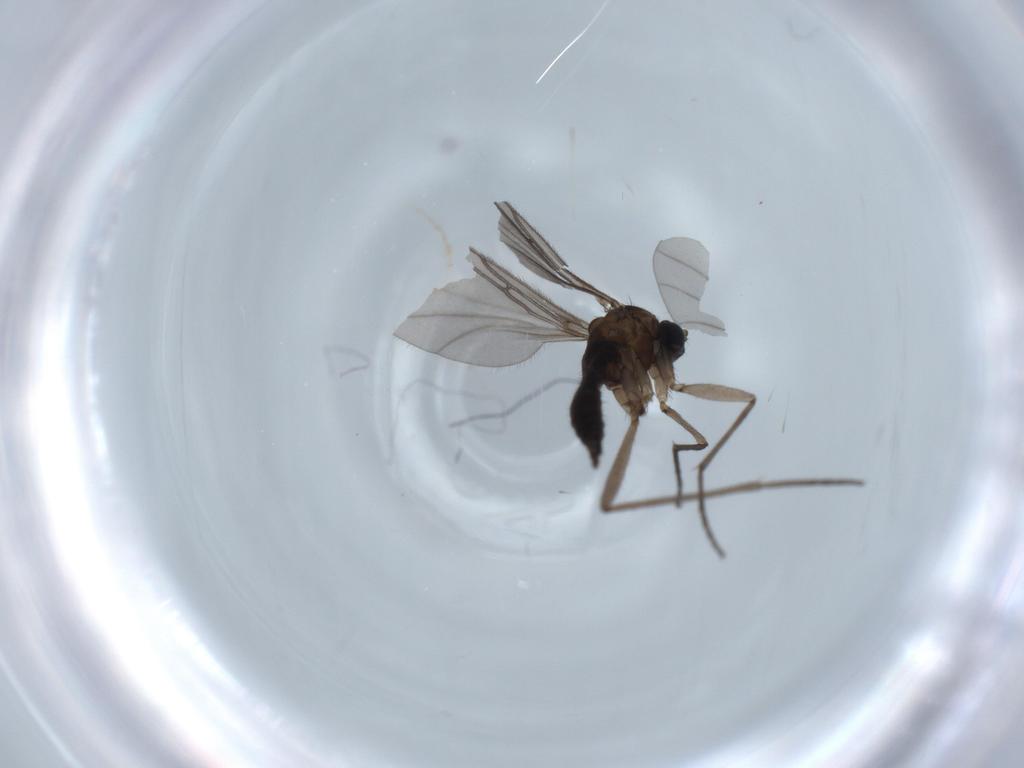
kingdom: Animalia
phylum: Arthropoda
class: Insecta
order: Diptera
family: Sciaridae
